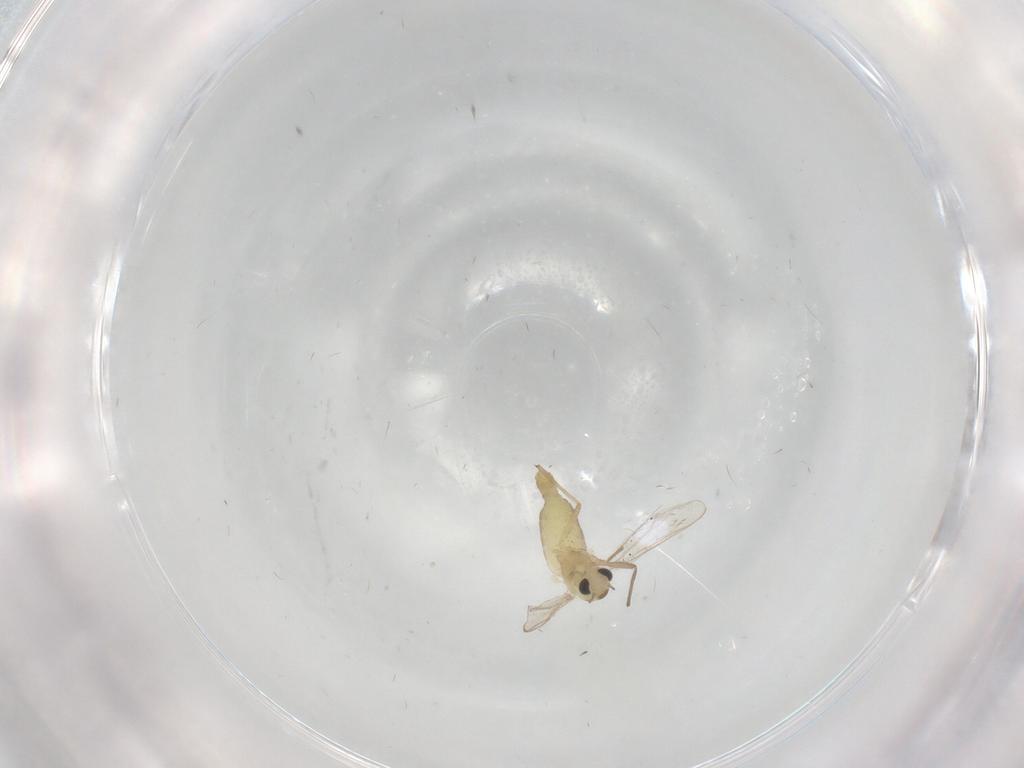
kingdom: Animalia
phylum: Arthropoda
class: Insecta
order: Diptera
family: Chironomidae
